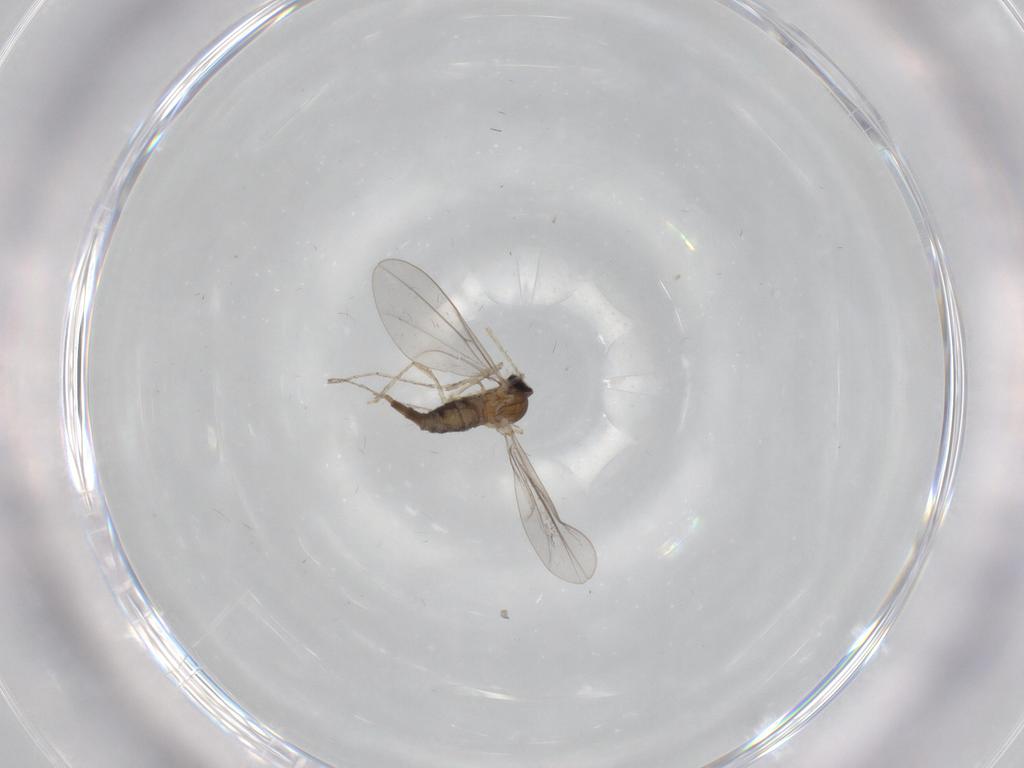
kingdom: Animalia
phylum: Arthropoda
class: Insecta
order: Diptera
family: Cecidomyiidae
